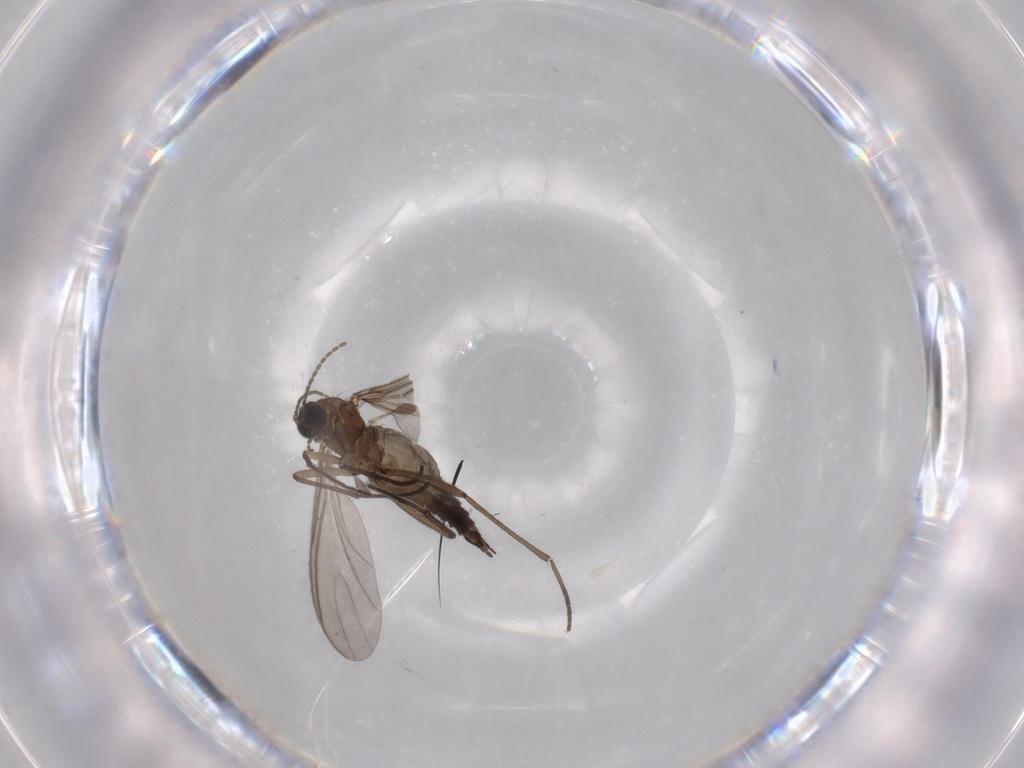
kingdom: Animalia
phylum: Arthropoda
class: Insecta
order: Diptera
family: Sciaridae
